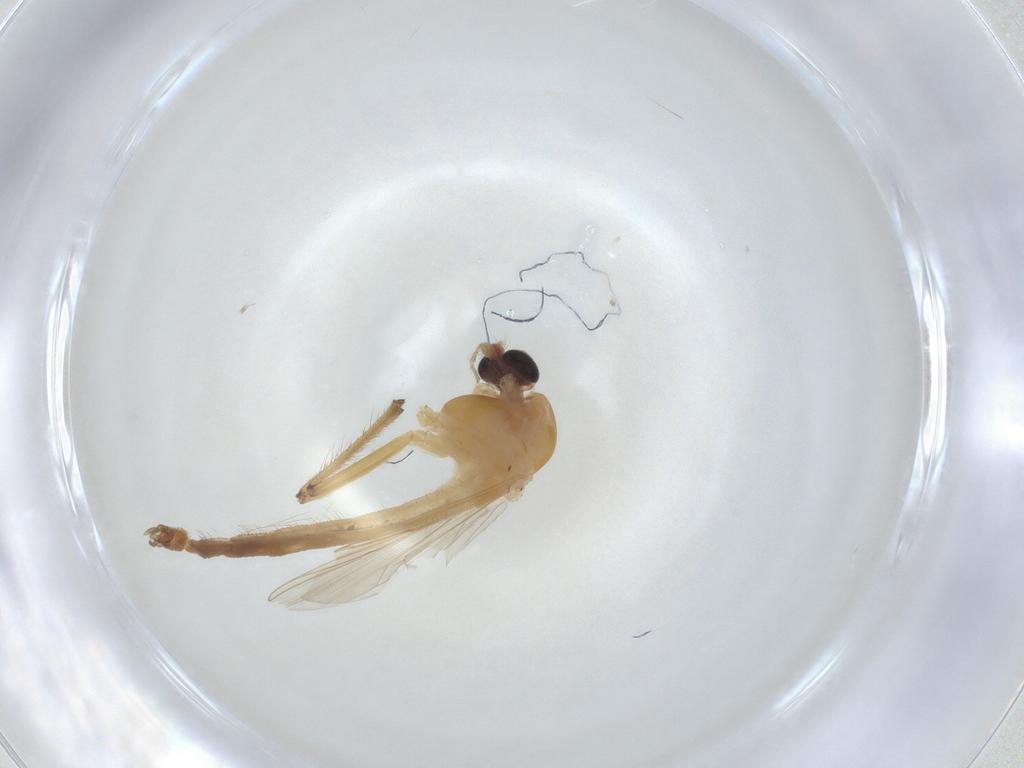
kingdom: Animalia
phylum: Arthropoda
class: Insecta
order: Diptera
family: Chironomidae
